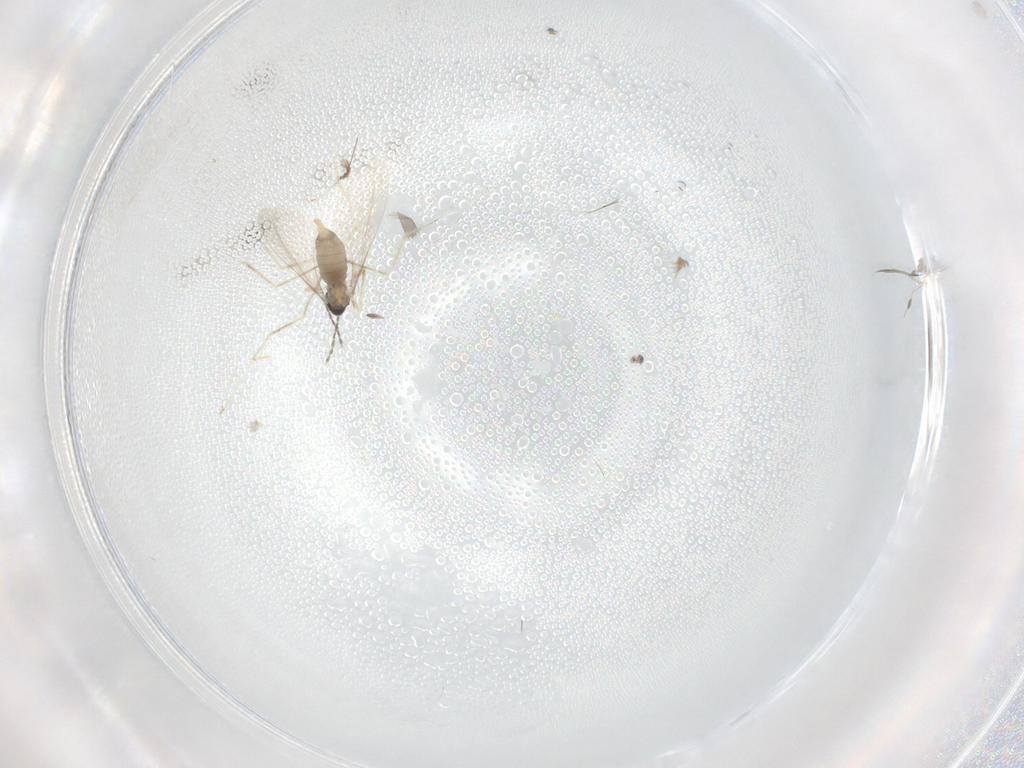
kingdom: Animalia
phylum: Arthropoda
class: Insecta
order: Diptera
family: Cecidomyiidae
